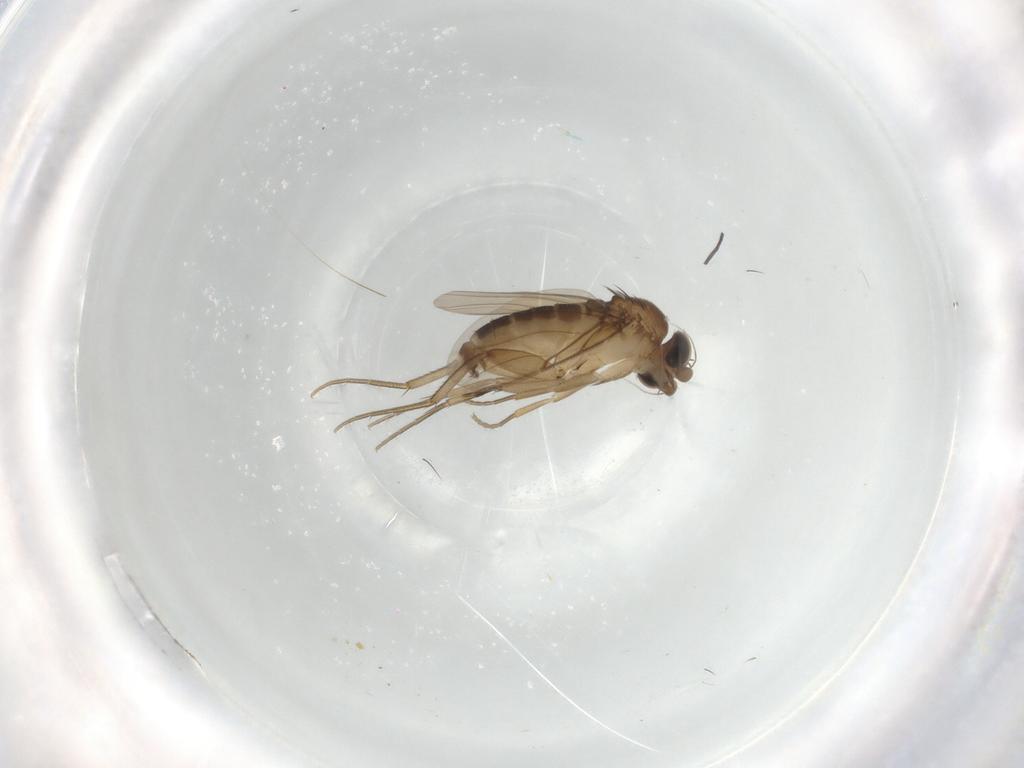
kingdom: Animalia
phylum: Arthropoda
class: Insecta
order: Diptera
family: Phoridae
